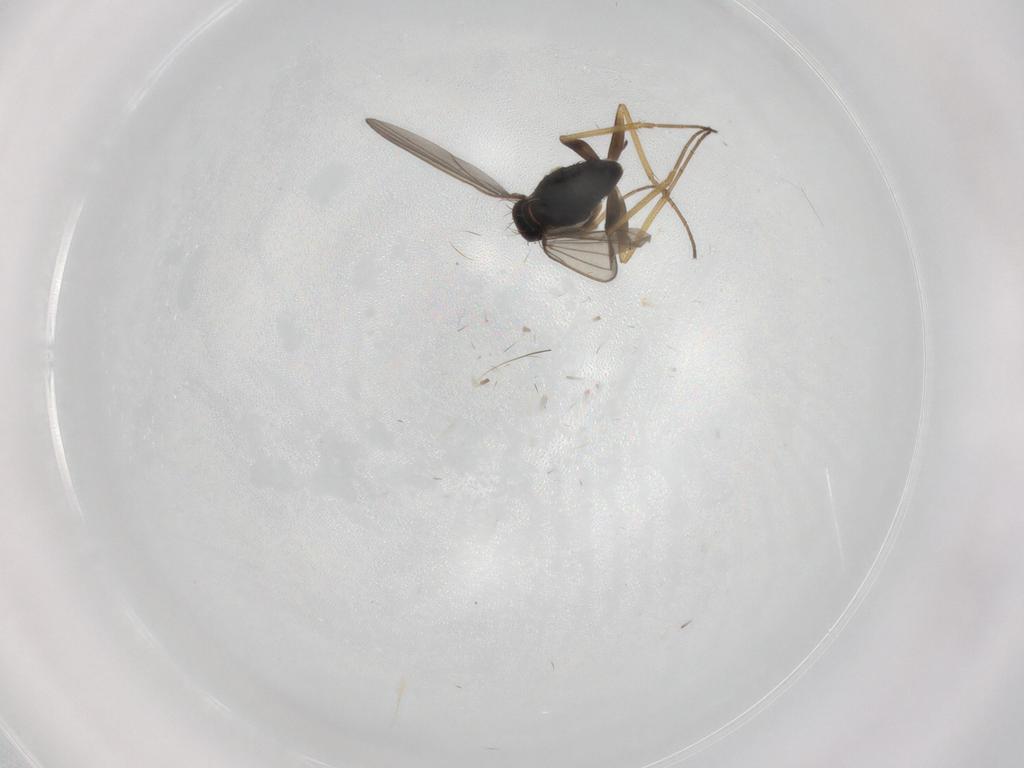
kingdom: Animalia
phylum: Arthropoda
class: Insecta
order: Diptera
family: Dolichopodidae
